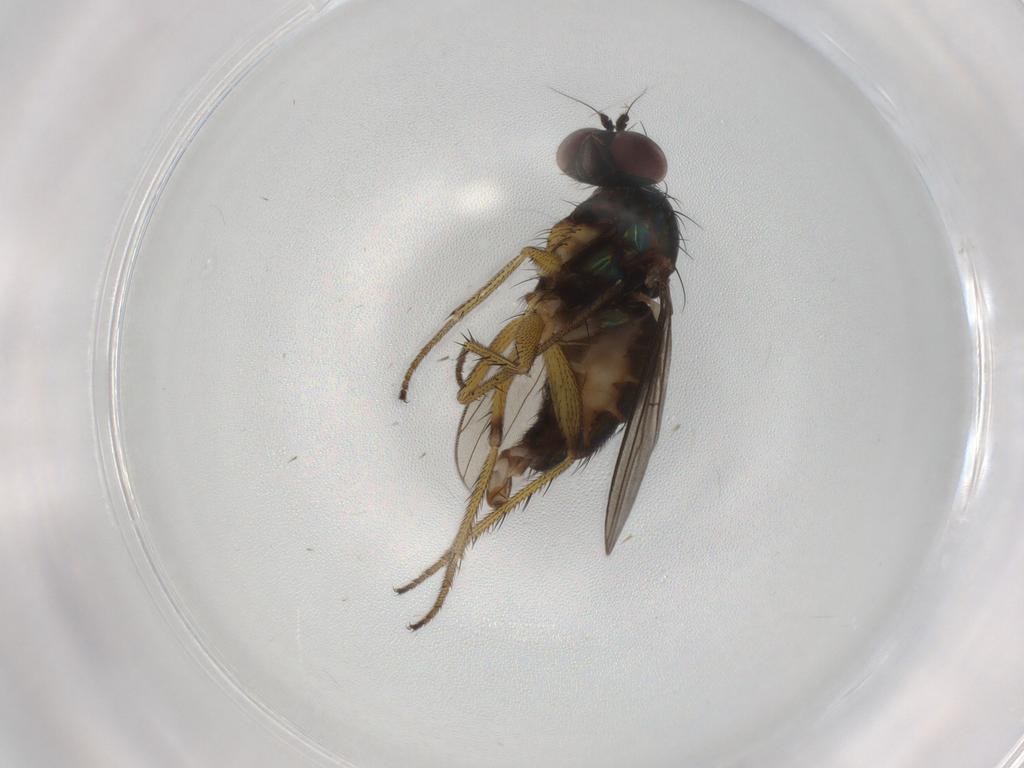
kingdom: Animalia
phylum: Arthropoda
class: Insecta
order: Diptera
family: Dolichopodidae
